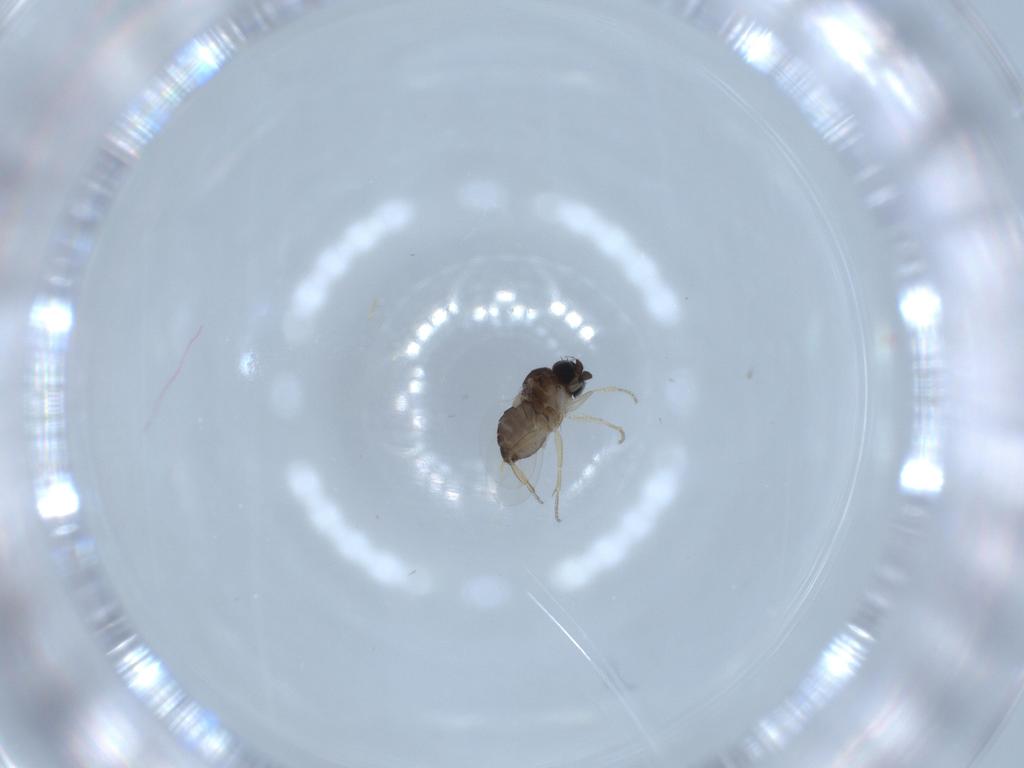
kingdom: Animalia
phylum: Arthropoda
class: Insecta
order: Diptera
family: Phoridae
